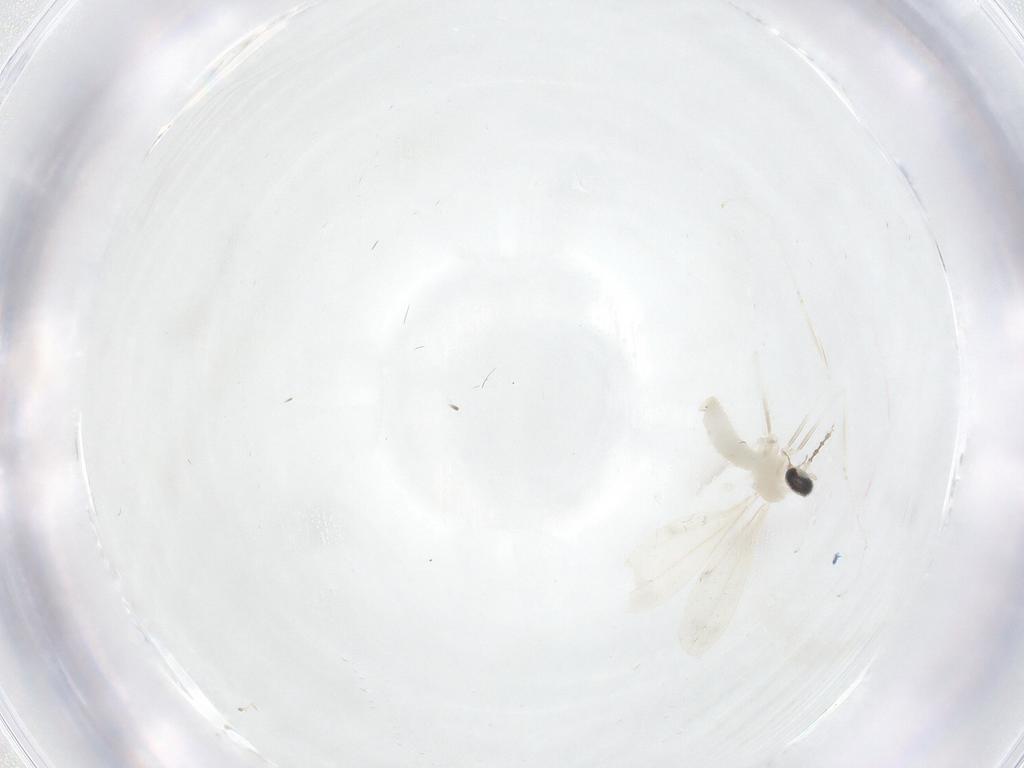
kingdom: Animalia
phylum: Arthropoda
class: Insecta
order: Diptera
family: Cecidomyiidae
